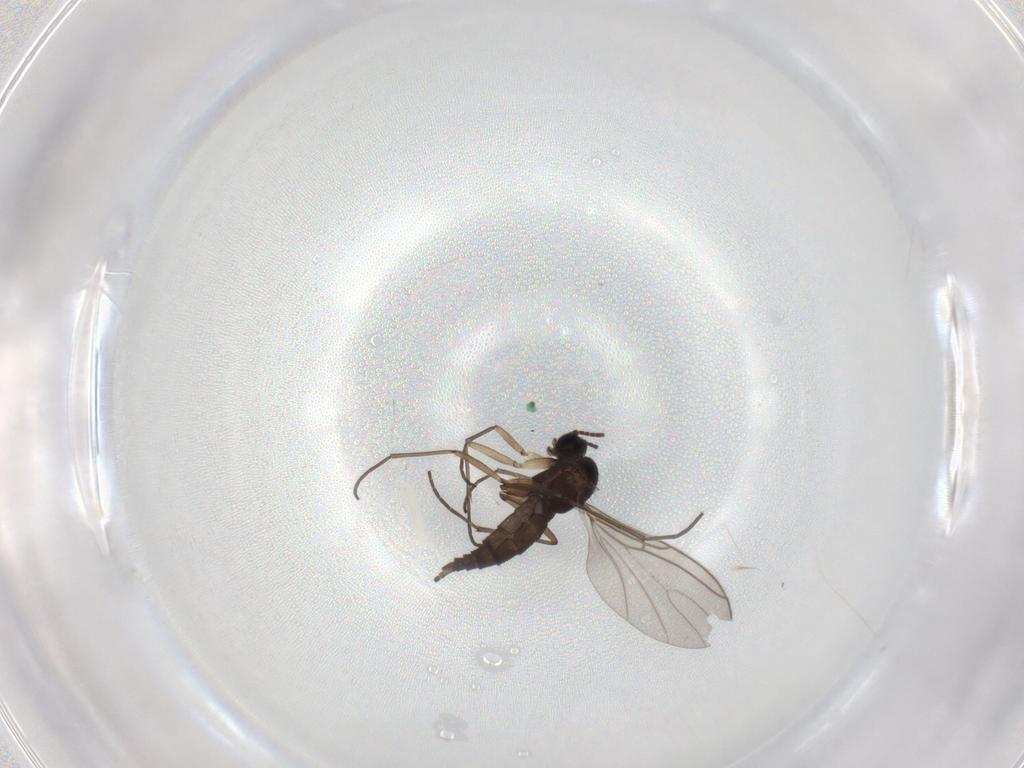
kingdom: Animalia
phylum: Arthropoda
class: Insecta
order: Diptera
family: Sciaridae
